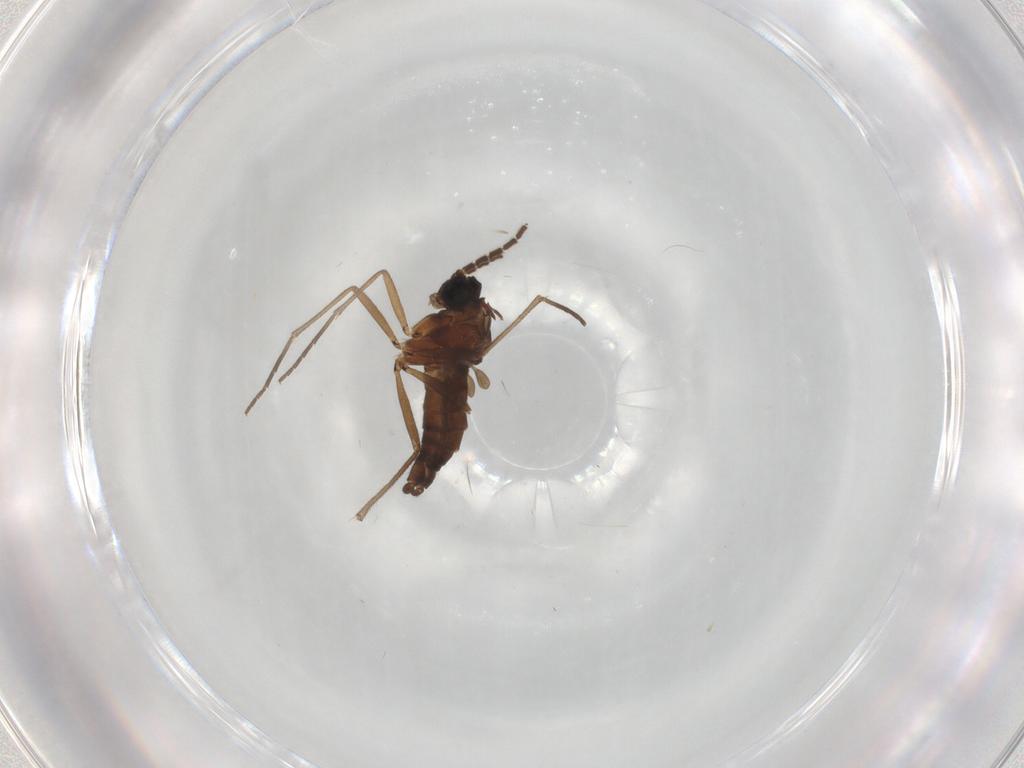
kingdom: Animalia
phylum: Arthropoda
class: Insecta
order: Diptera
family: Sciaridae
